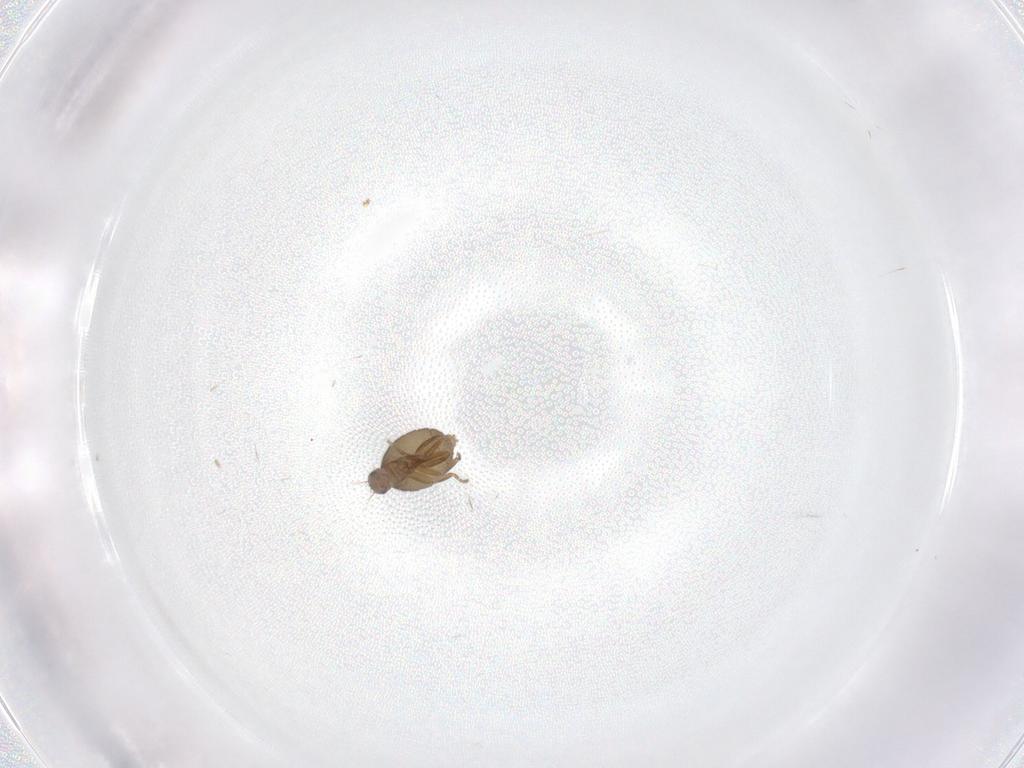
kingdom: Animalia
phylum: Arthropoda
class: Insecta
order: Diptera
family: Phoridae
